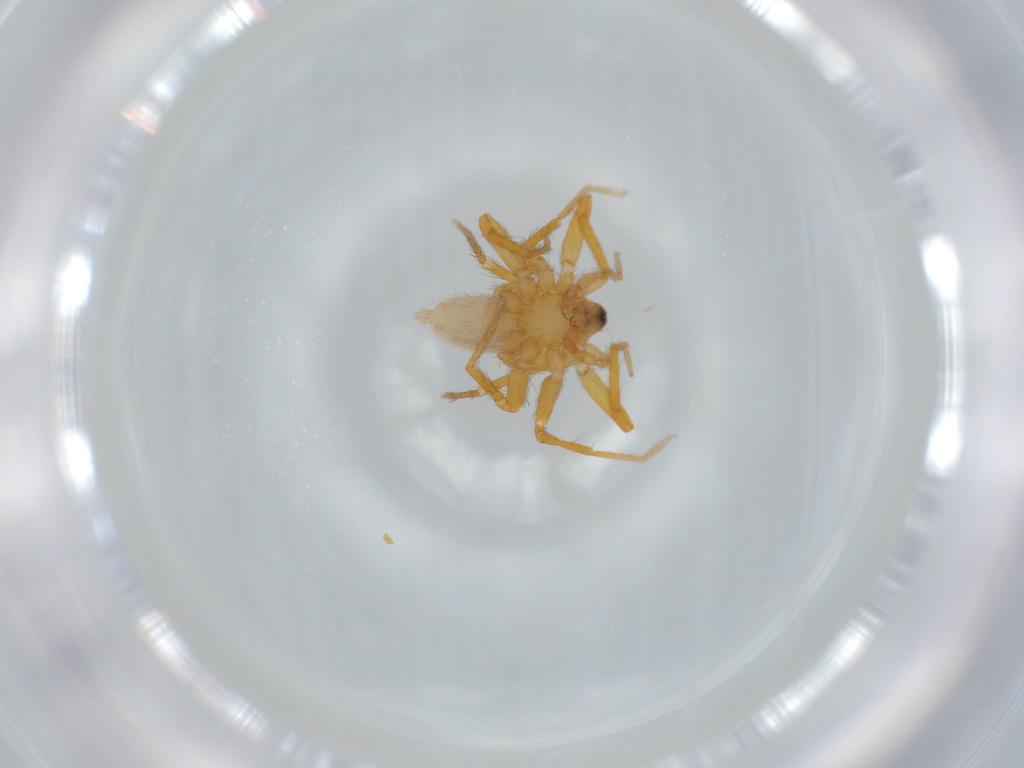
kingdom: Animalia
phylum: Arthropoda
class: Arachnida
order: Araneae
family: Oonopidae
